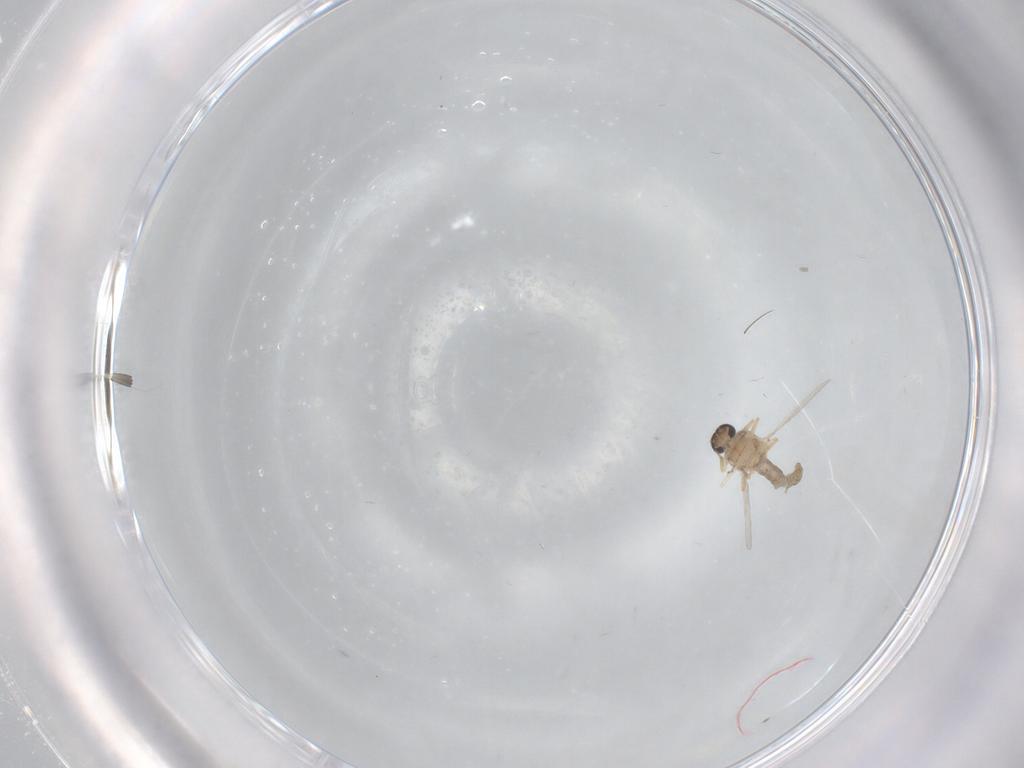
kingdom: Animalia
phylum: Arthropoda
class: Insecta
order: Diptera
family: Ceratopogonidae
